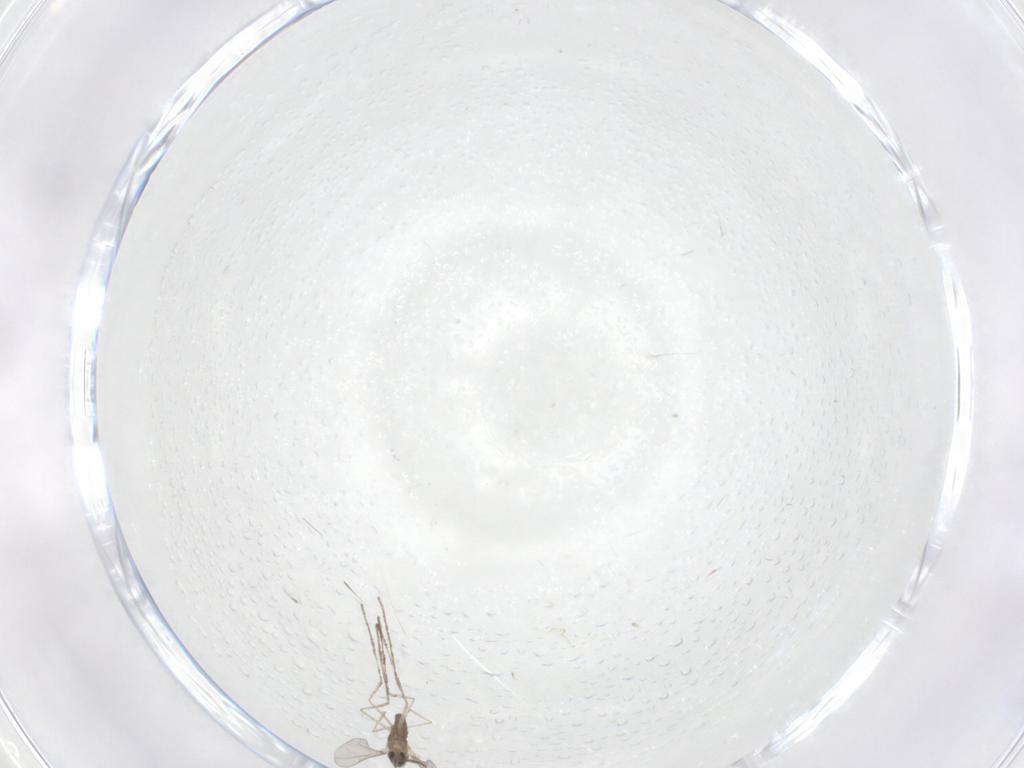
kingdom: Animalia
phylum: Arthropoda
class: Insecta
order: Diptera
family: Cecidomyiidae
